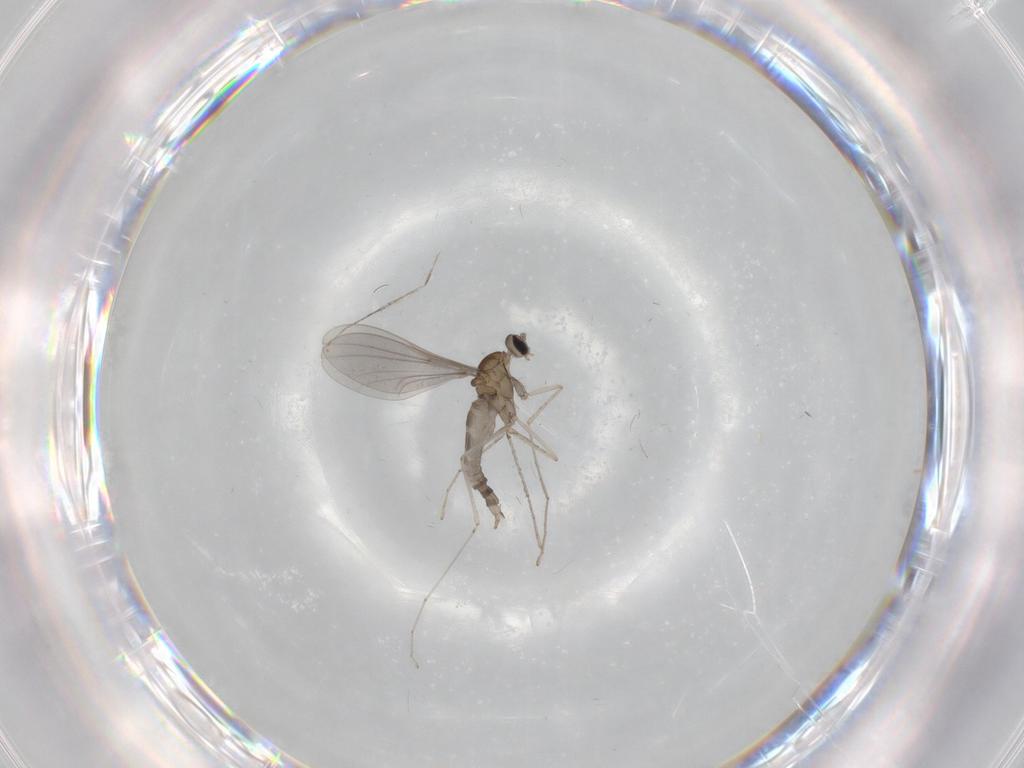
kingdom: Animalia
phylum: Arthropoda
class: Insecta
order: Diptera
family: Cecidomyiidae
